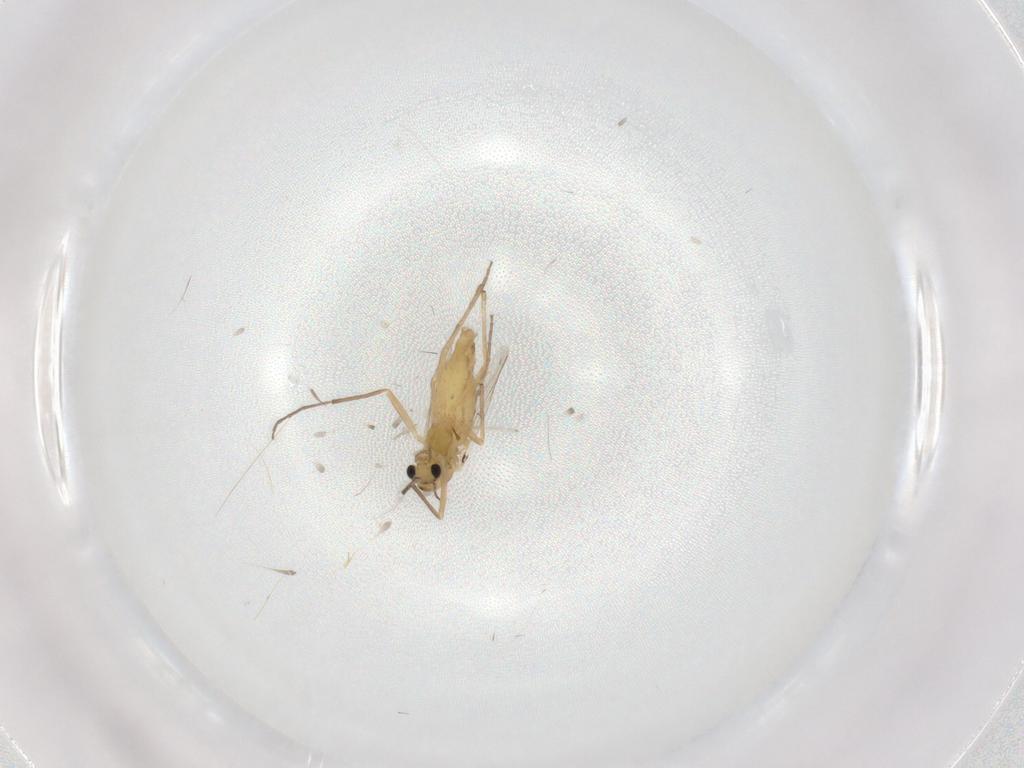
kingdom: Animalia
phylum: Arthropoda
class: Insecta
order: Diptera
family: Chironomidae
